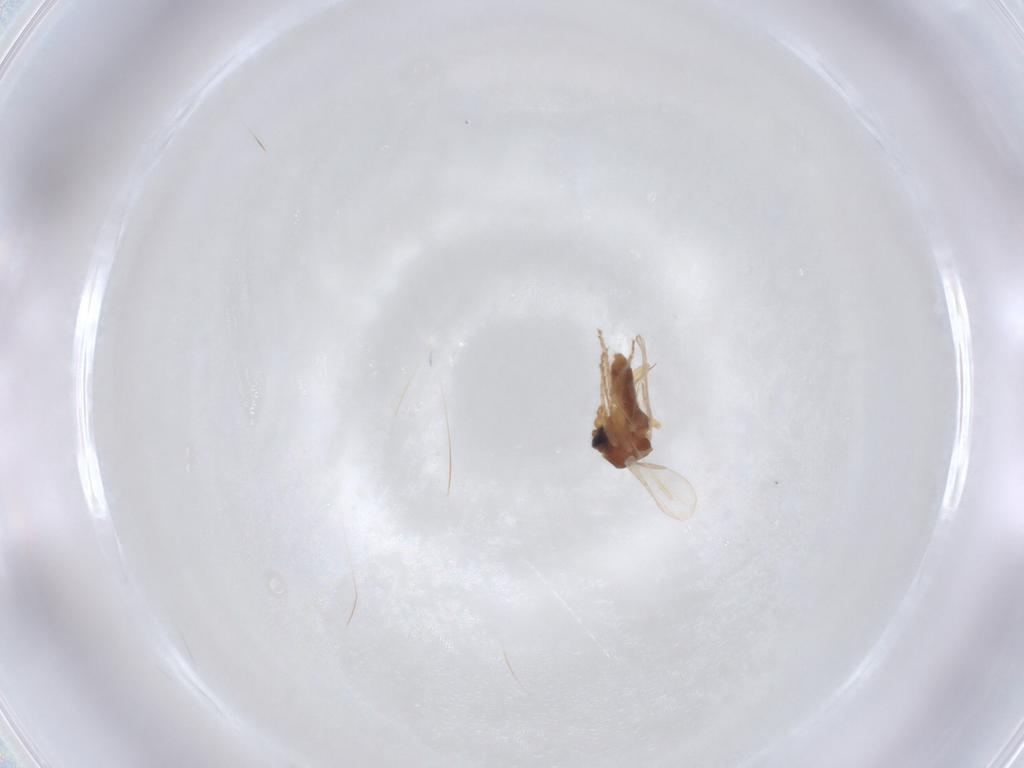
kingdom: Animalia
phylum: Arthropoda
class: Insecta
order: Diptera
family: Ceratopogonidae
